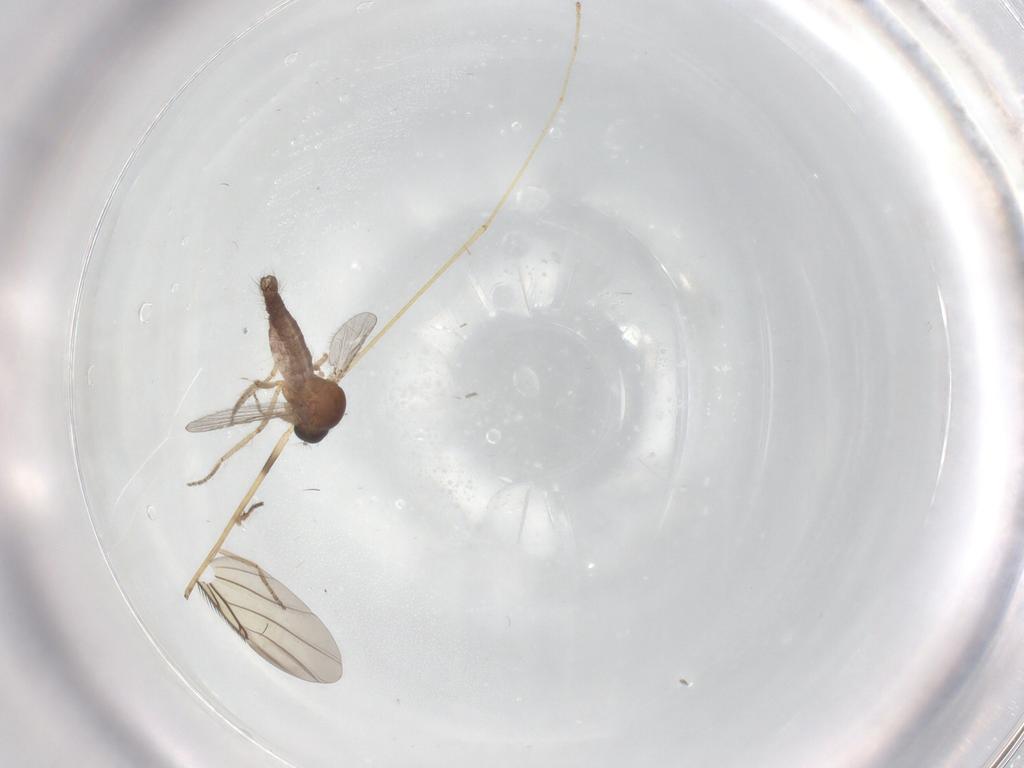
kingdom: Animalia
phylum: Arthropoda
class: Insecta
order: Diptera
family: Ceratopogonidae
